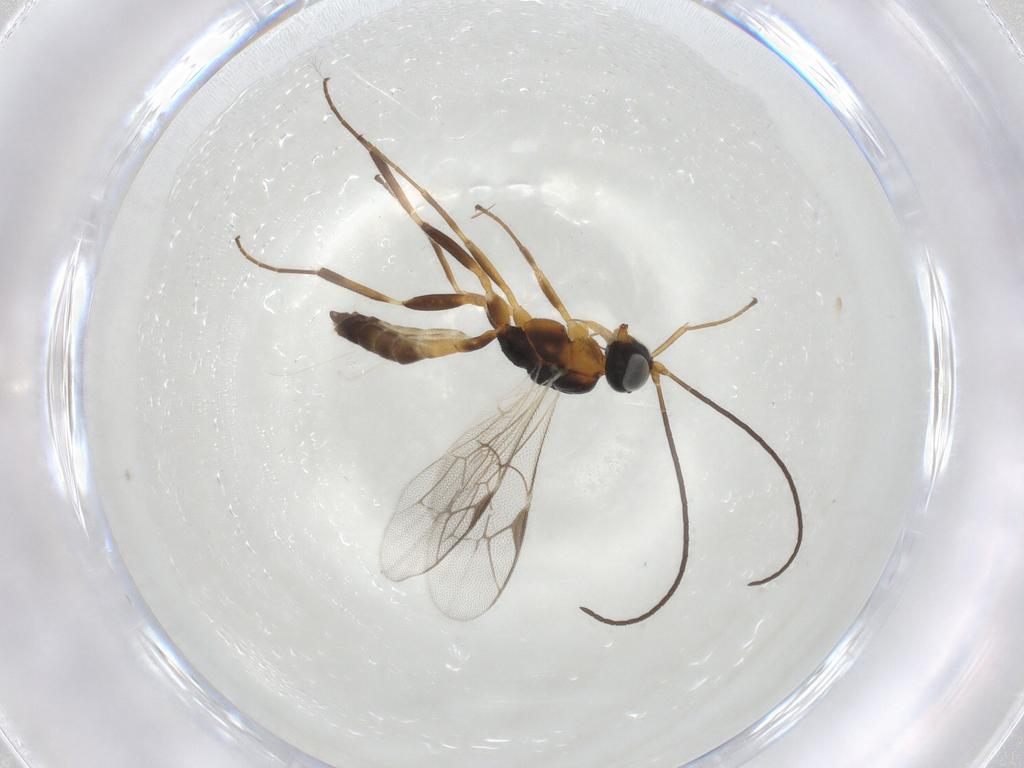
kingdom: Animalia
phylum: Arthropoda
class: Insecta
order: Hymenoptera
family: Ichneumonidae
